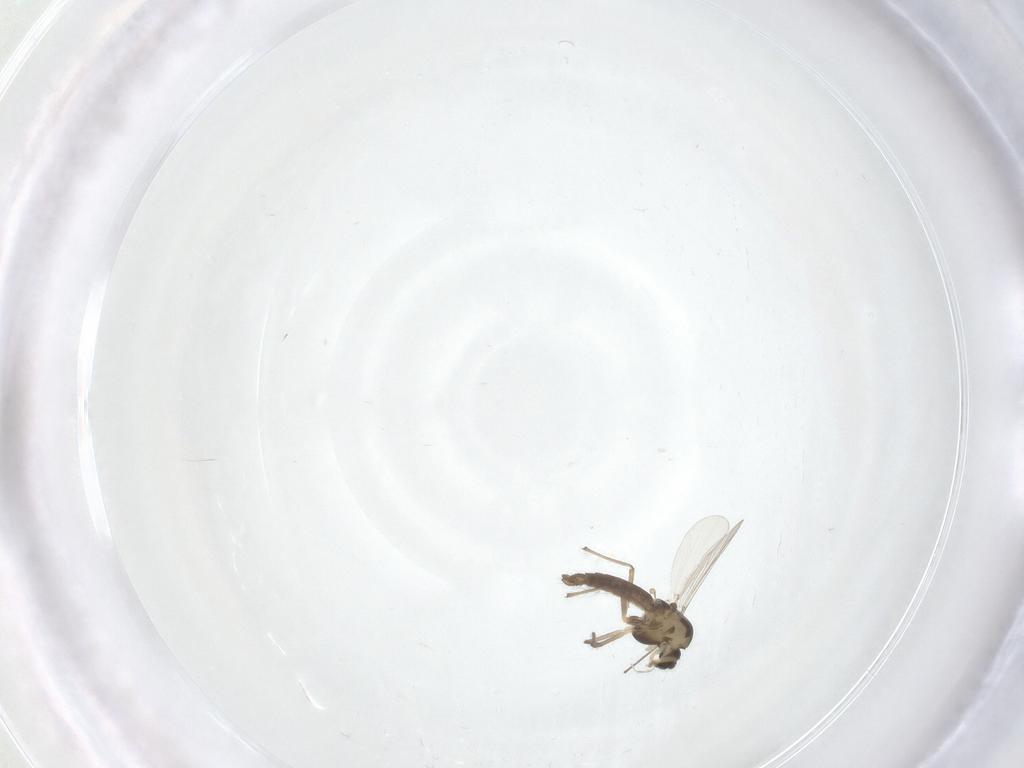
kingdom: Animalia
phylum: Arthropoda
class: Insecta
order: Diptera
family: Chironomidae
